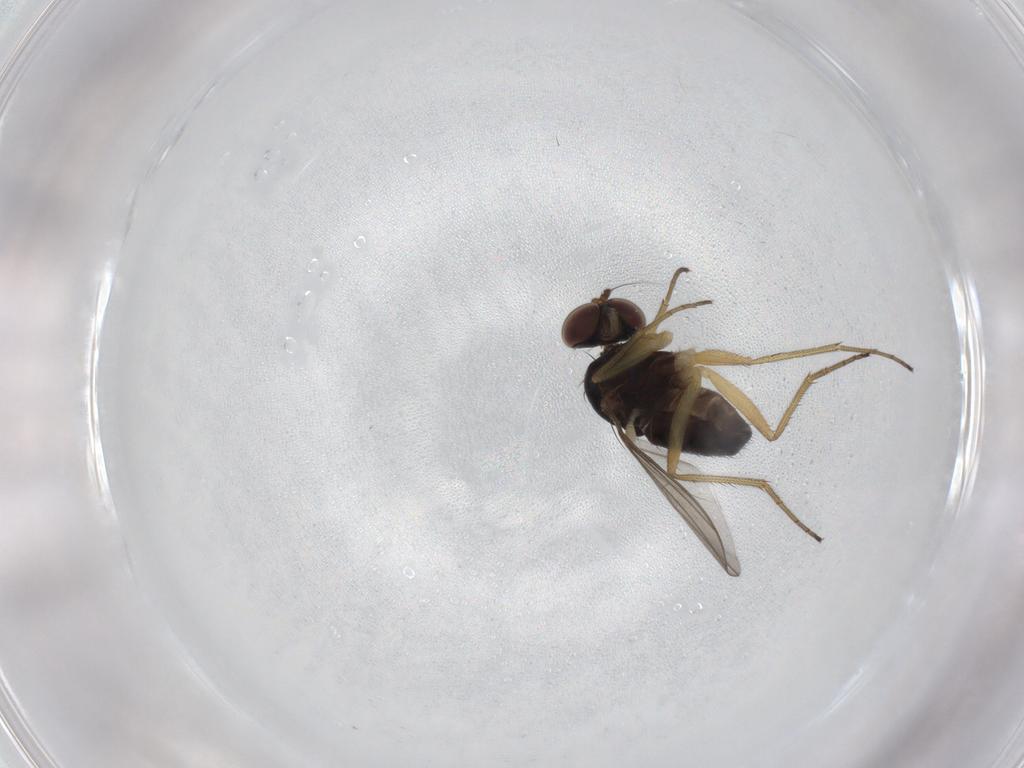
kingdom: Animalia
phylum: Arthropoda
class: Insecta
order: Diptera
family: Dolichopodidae
